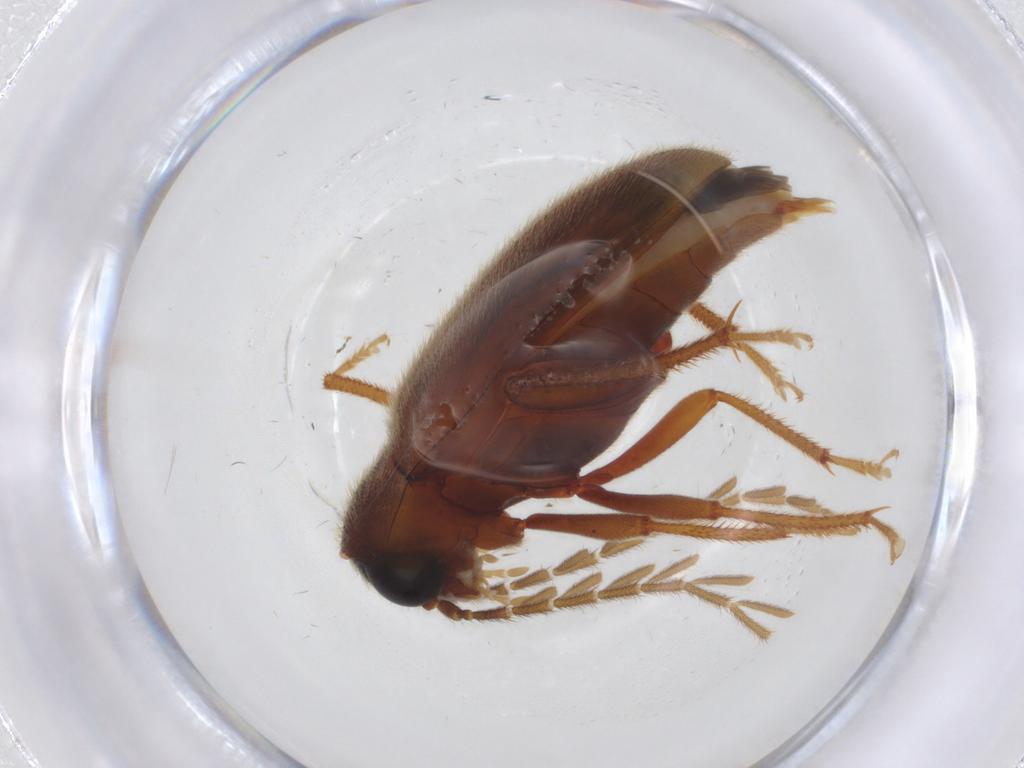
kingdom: Animalia
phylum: Arthropoda
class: Insecta
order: Coleoptera
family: Ptilodactylidae
